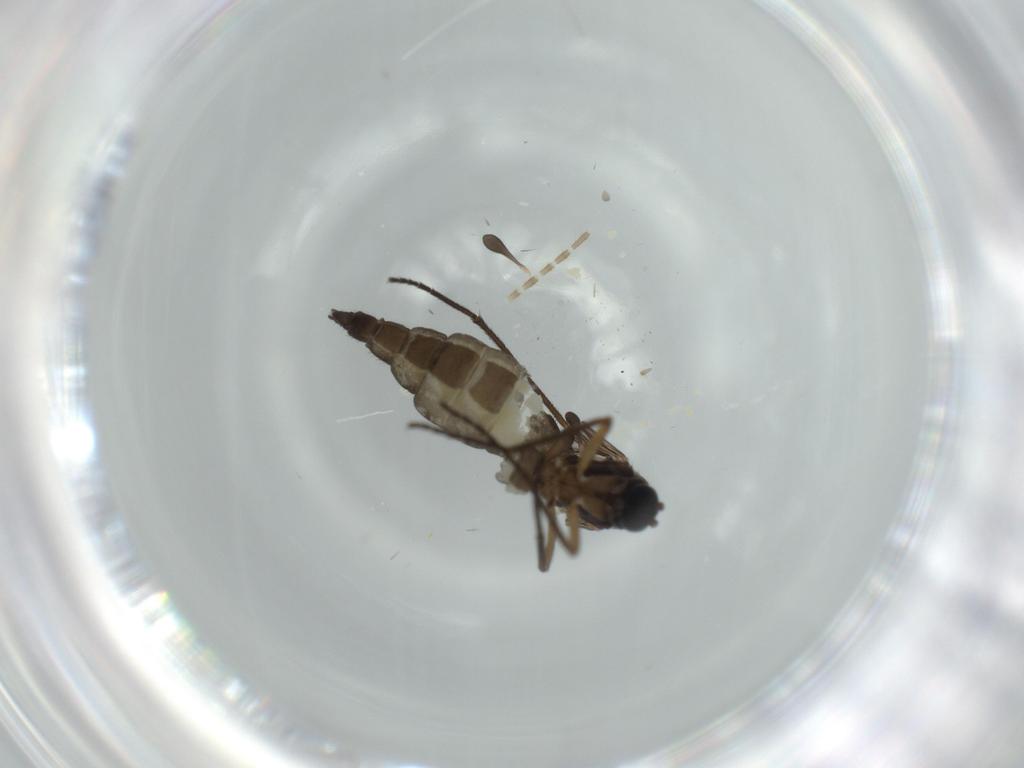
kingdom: Animalia
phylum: Arthropoda
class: Insecta
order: Diptera
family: Sciaridae
